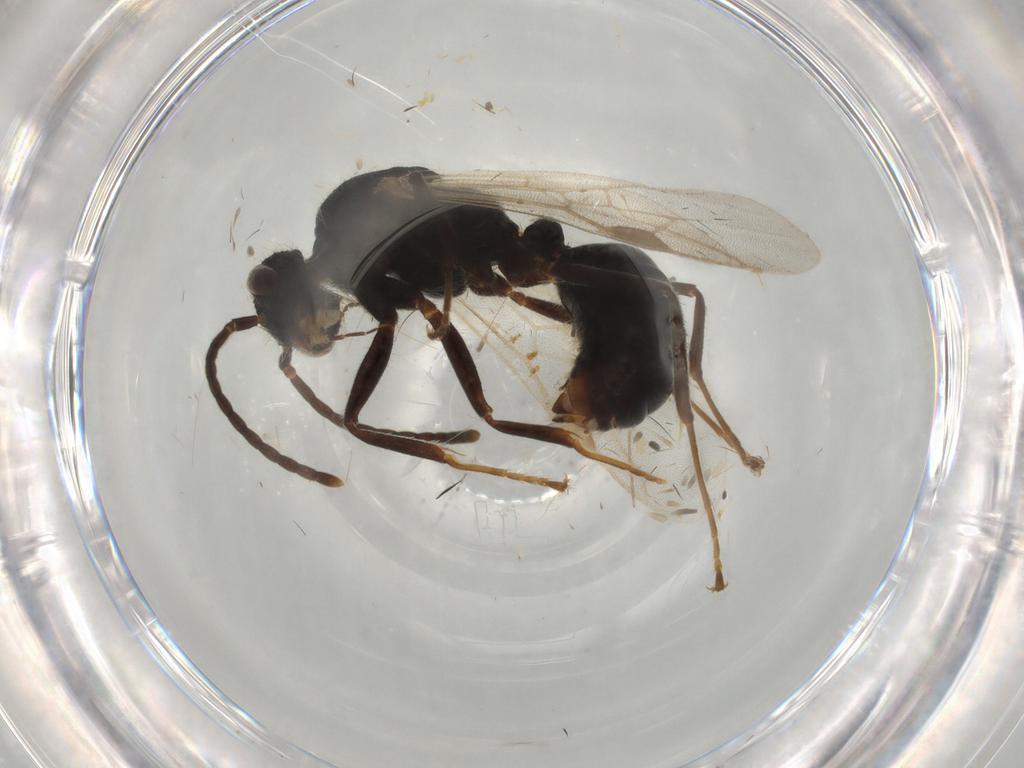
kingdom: Animalia
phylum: Arthropoda
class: Insecta
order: Hymenoptera
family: Formicidae
